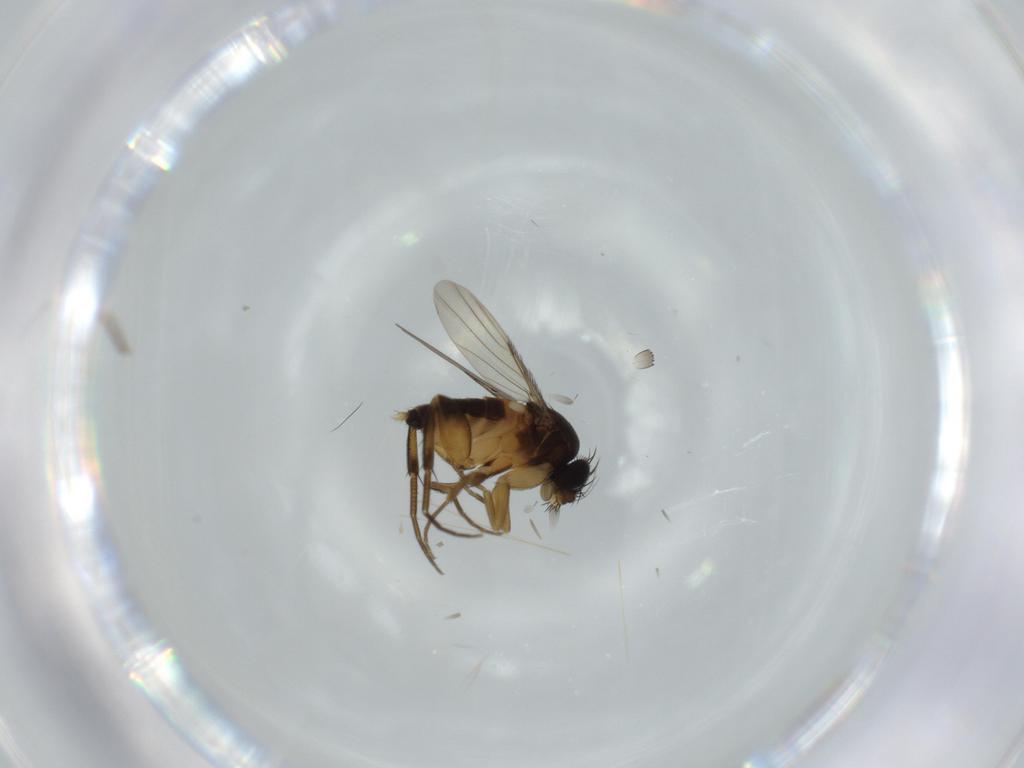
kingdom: Animalia
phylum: Arthropoda
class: Insecta
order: Diptera
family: Phoridae
